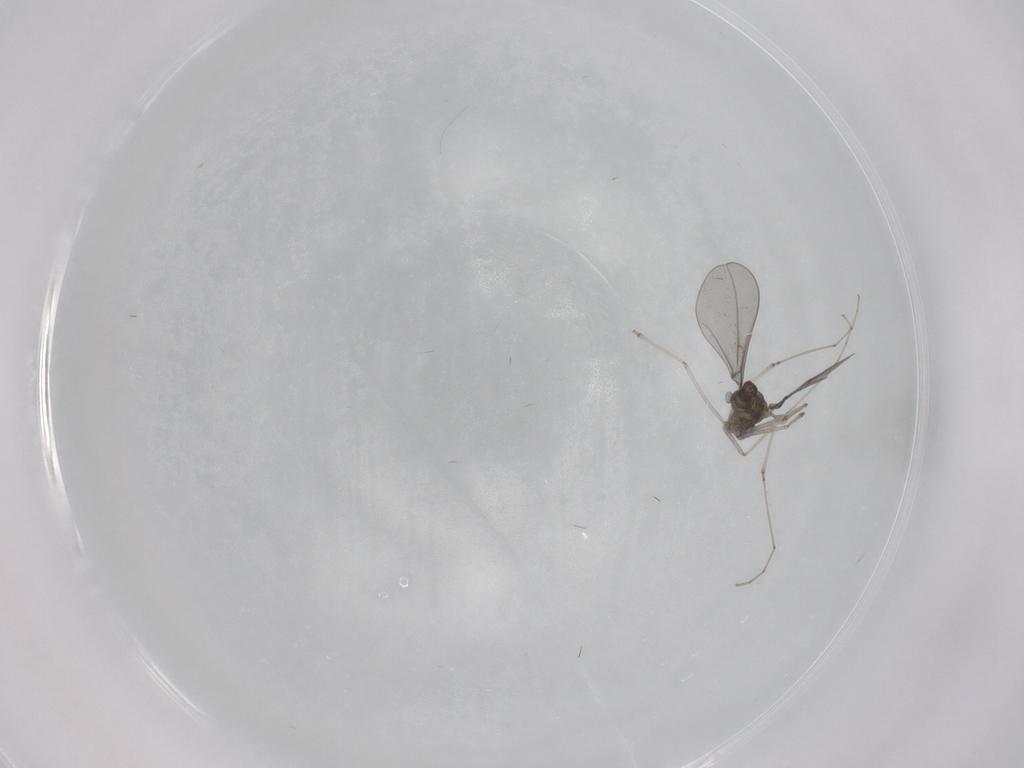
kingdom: Animalia
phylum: Arthropoda
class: Insecta
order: Diptera
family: Cecidomyiidae
